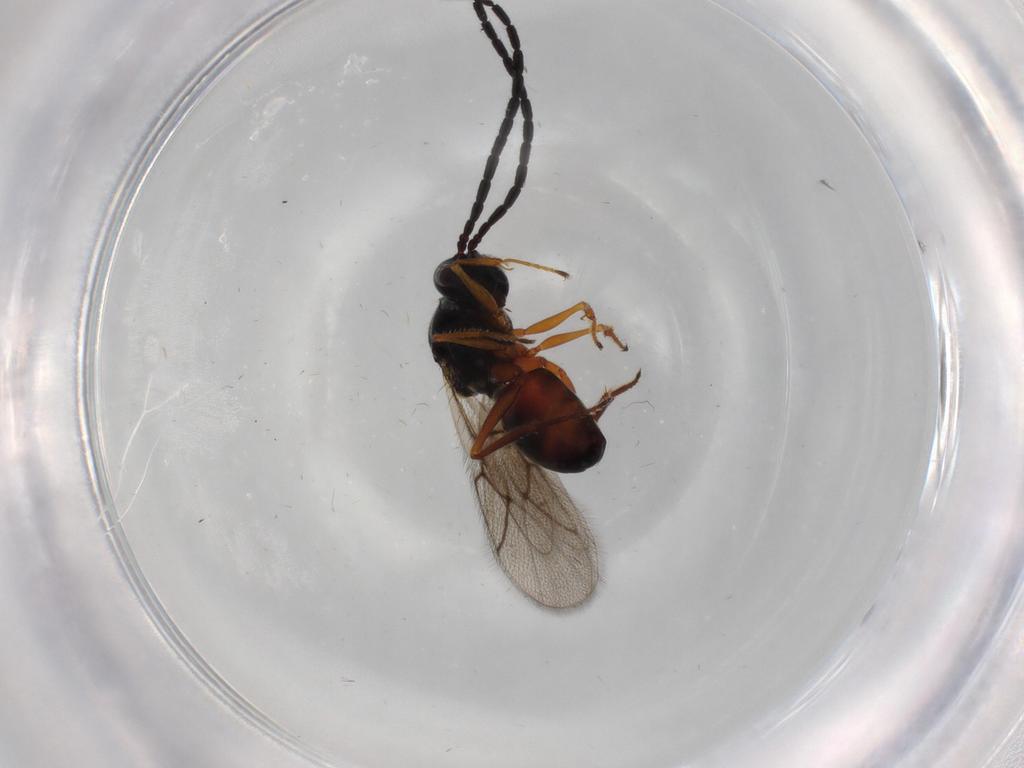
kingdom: Animalia
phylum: Arthropoda
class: Insecta
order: Hymenoptera
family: Figitidae
